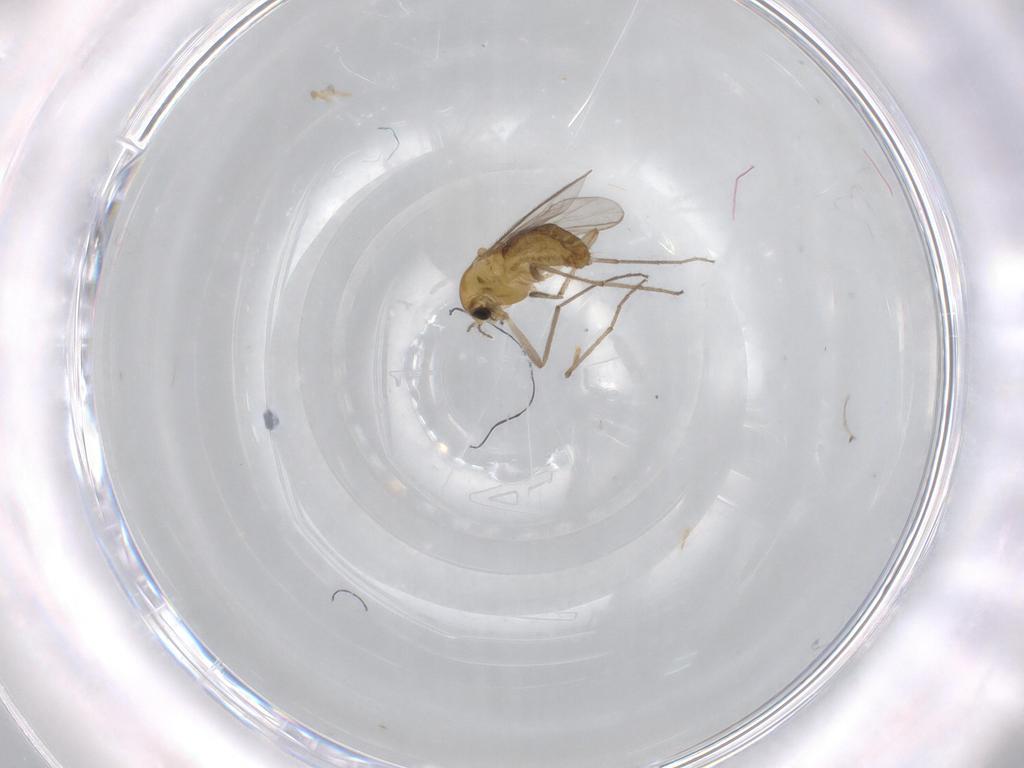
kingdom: Animalia
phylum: Arthropoda
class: Insecta
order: Diptera
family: Chironomidae
